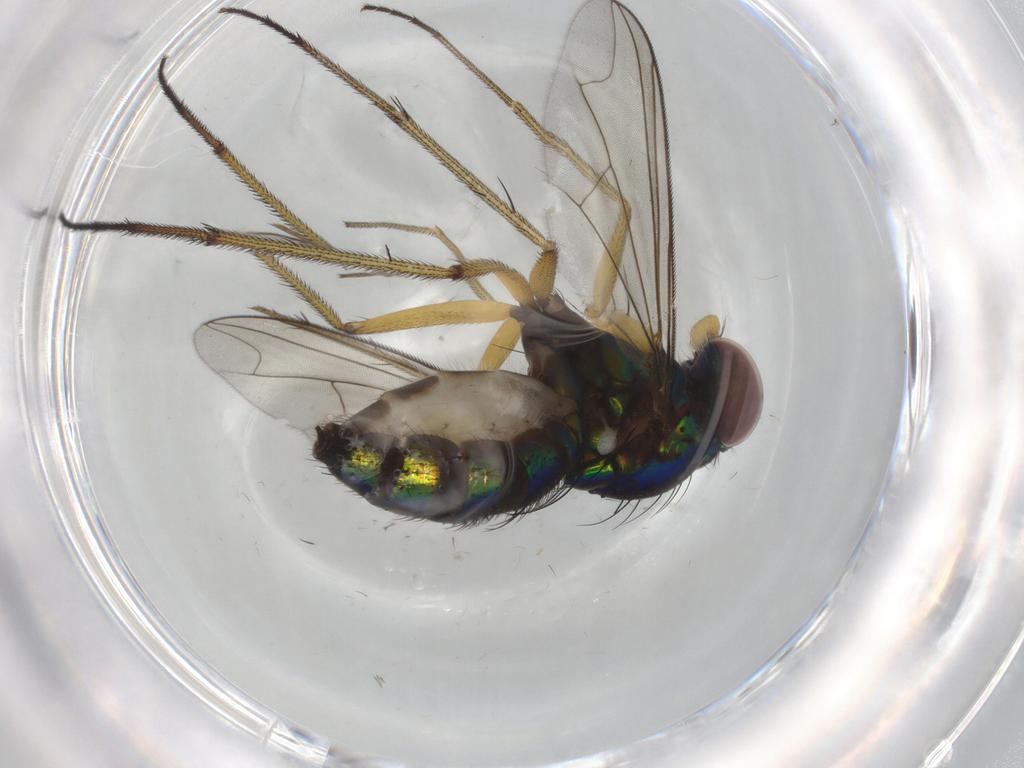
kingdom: Animalia
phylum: Arthropoda
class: Insecta
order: Diptera
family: Dolichopodidae
